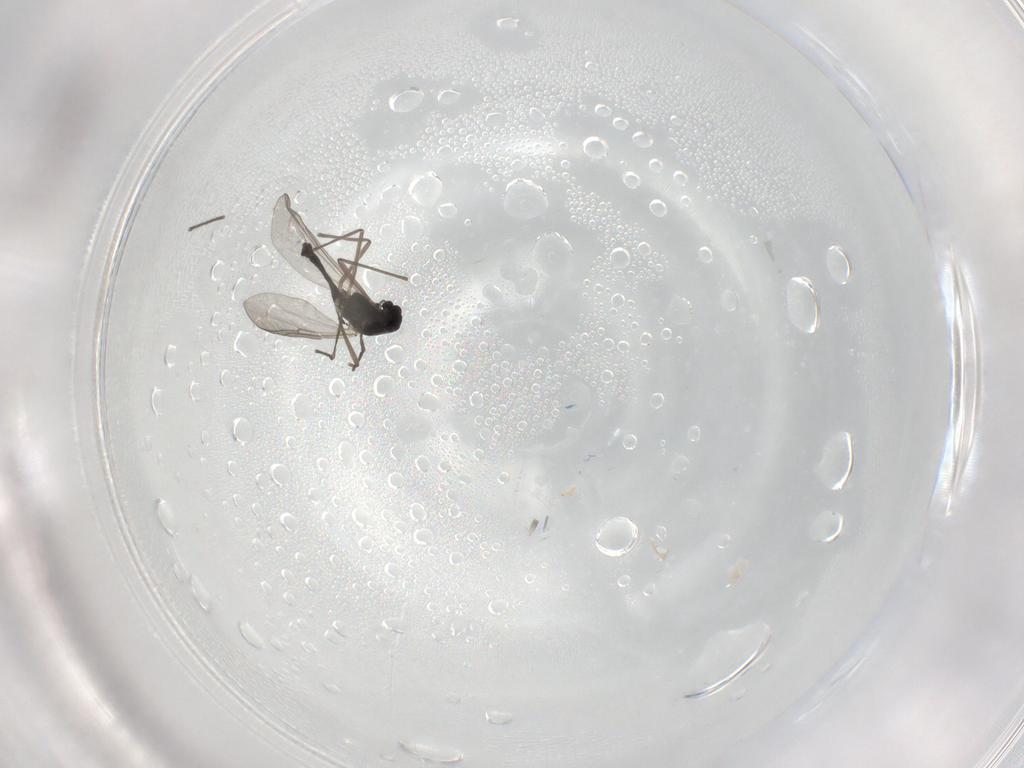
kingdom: Animalia
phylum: Arthropoda
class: Insecta
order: Diptera
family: Chironomidae
